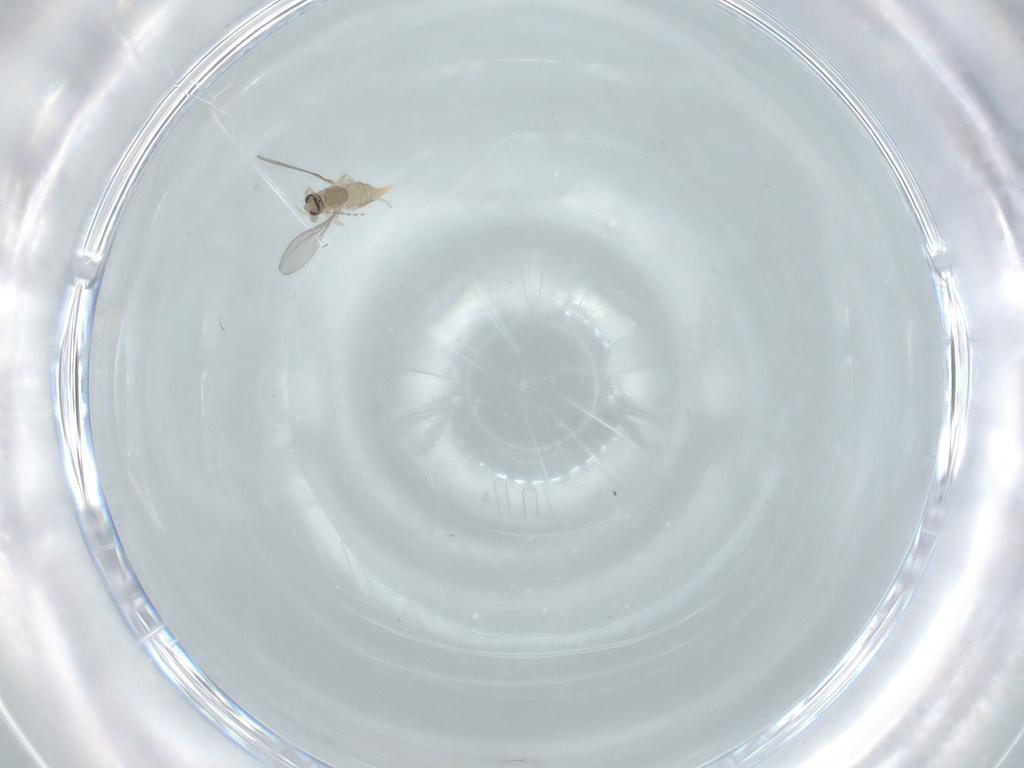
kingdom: Animalia
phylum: Arthropoda
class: Insecta
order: Diptera
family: Cecidomyiidae
